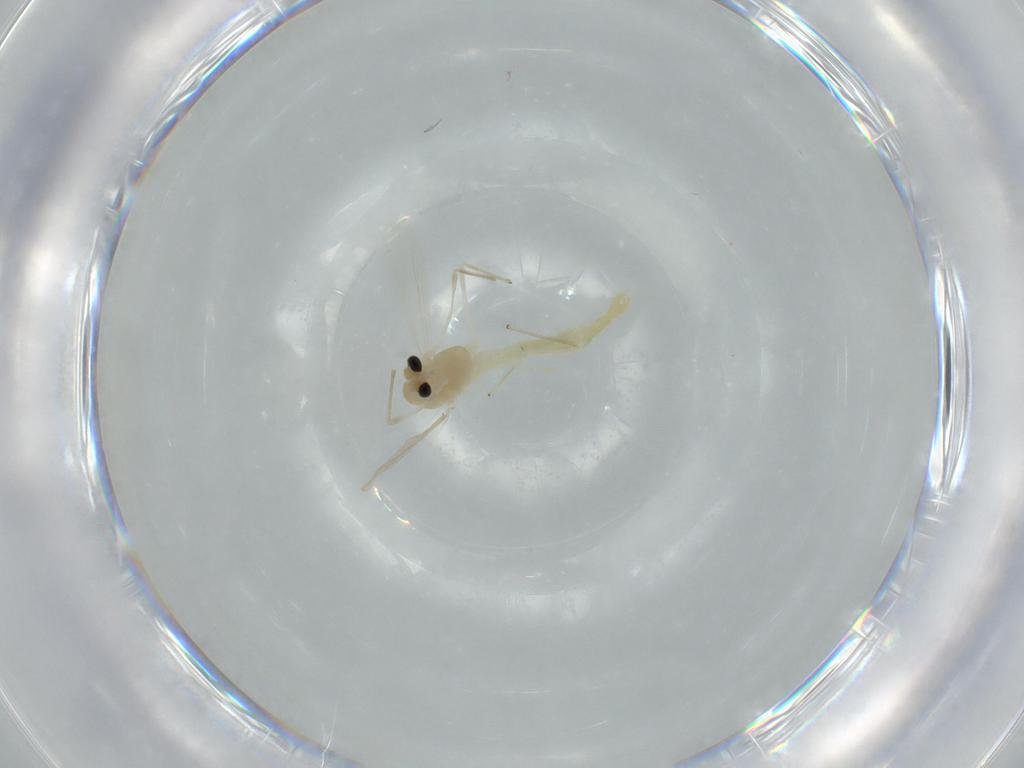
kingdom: Animalia
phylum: Arthropoda
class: Insecta
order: Diptera
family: Chironomidae
